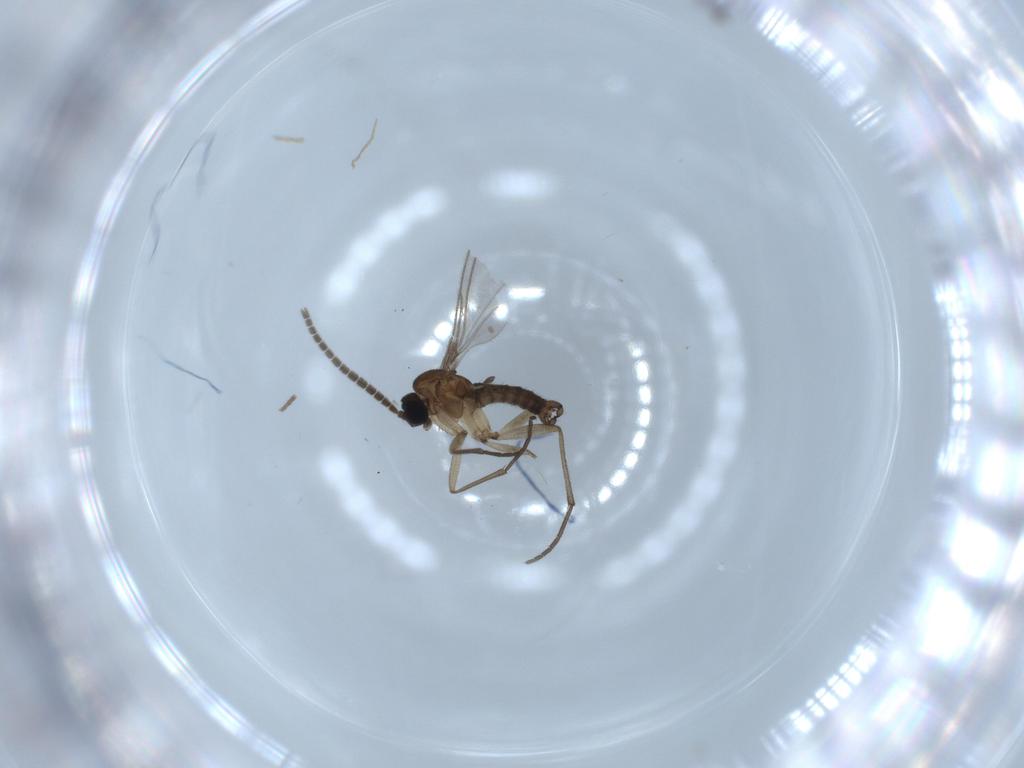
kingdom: Animalia
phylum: Arthropoda
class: Insecta
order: Diptera
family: Sciaridae
